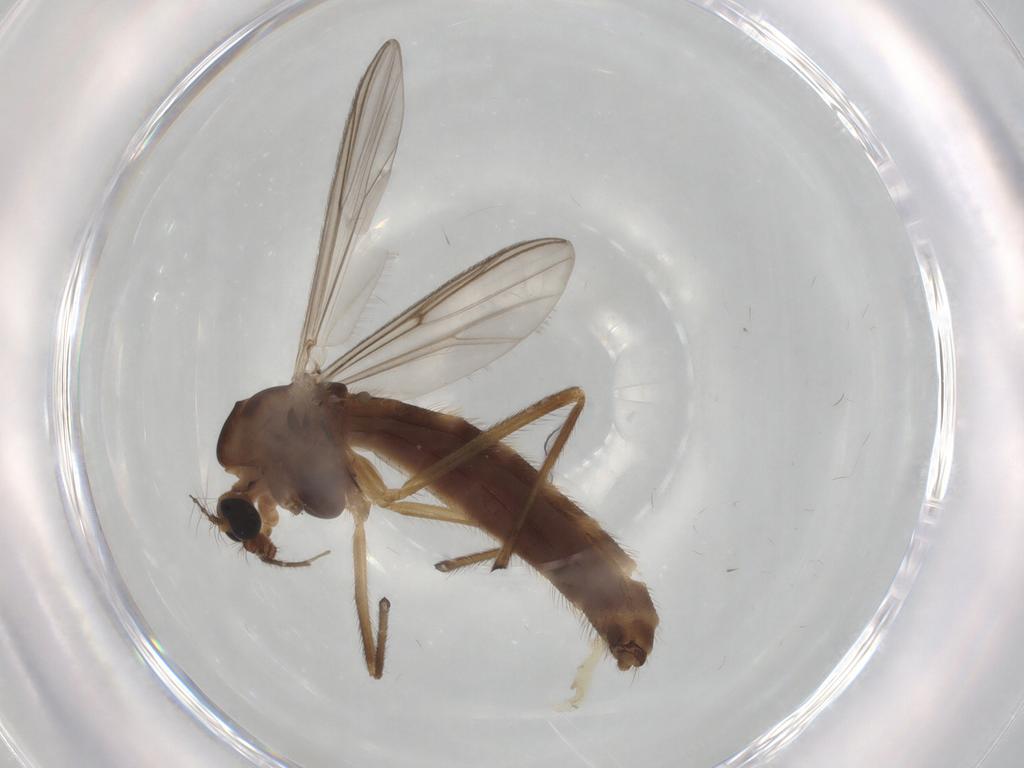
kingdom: Animalia
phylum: Arthropoda
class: Insecta
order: Diptera
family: Chironomidae
